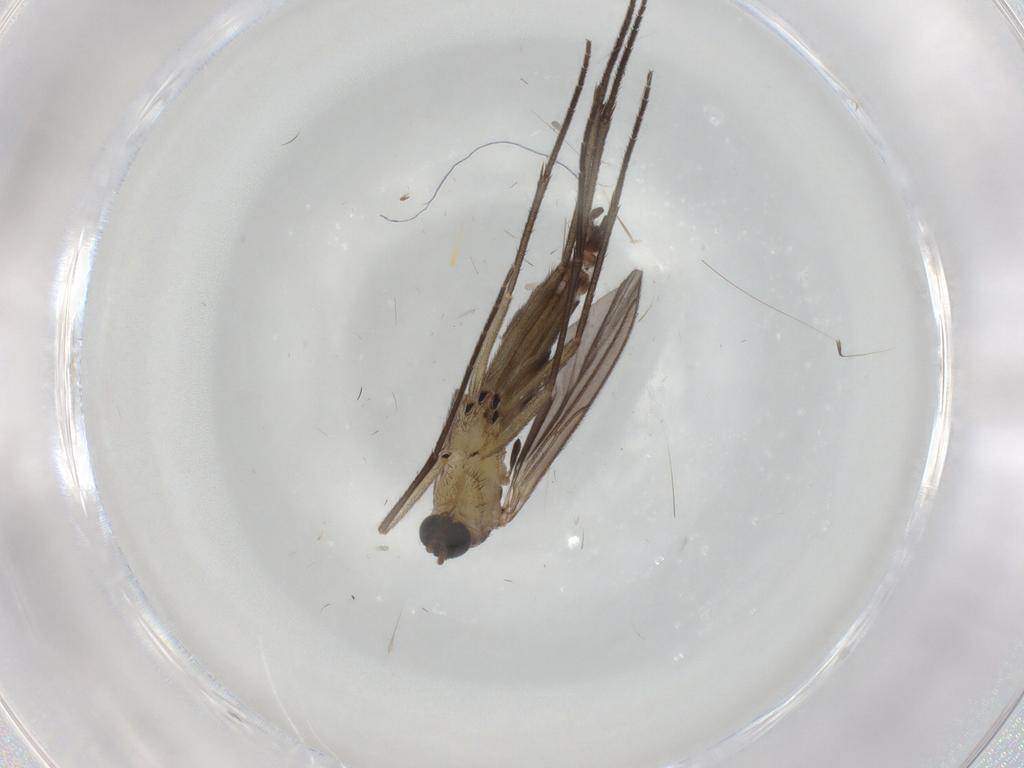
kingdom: Animalia
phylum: Arthropoda
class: Insecta
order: Diptera
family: Sciaridae
